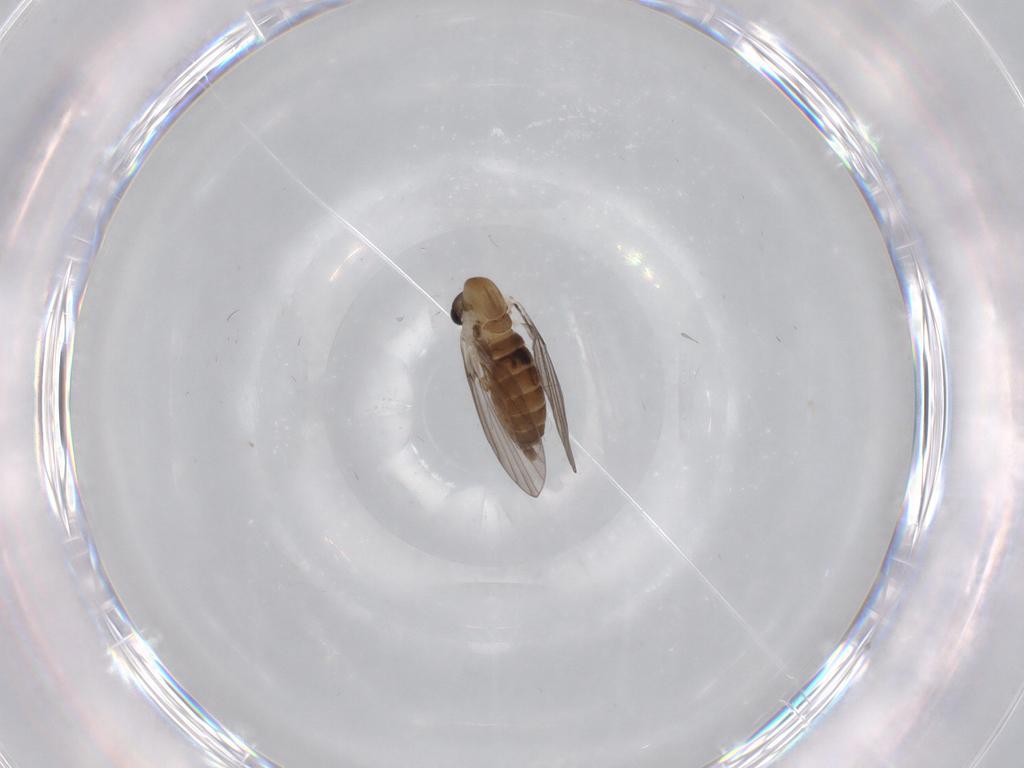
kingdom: Animalia
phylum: Arthropoda
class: Insecta
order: Diptera
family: Cecidomyiidae
